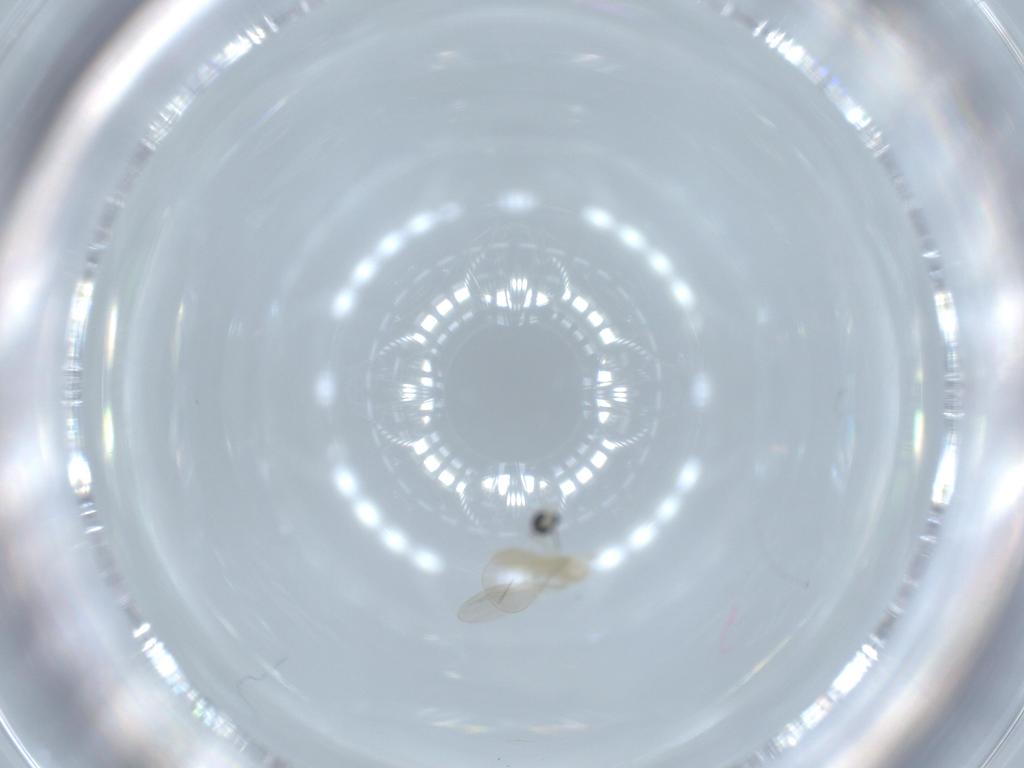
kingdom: Animalia
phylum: Arthropoda
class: Insecta
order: Diptera
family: Cecidomyiidae
